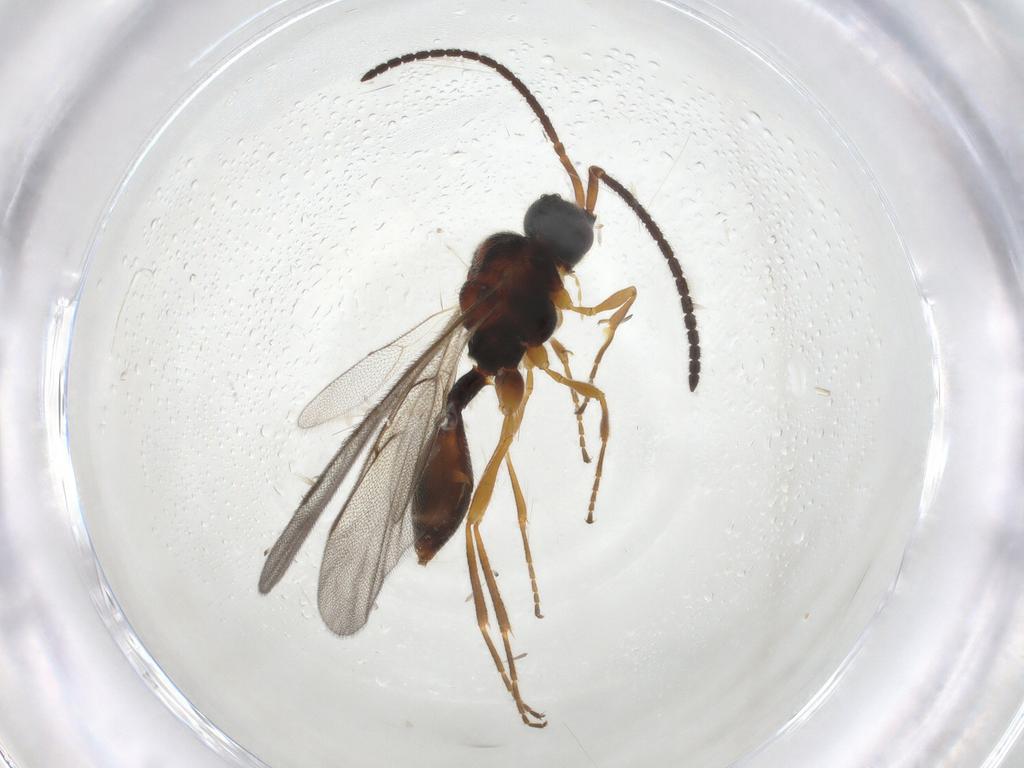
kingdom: Animalia
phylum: Arthropoda
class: Insecta
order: Hymenoptera
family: Diapriidae
